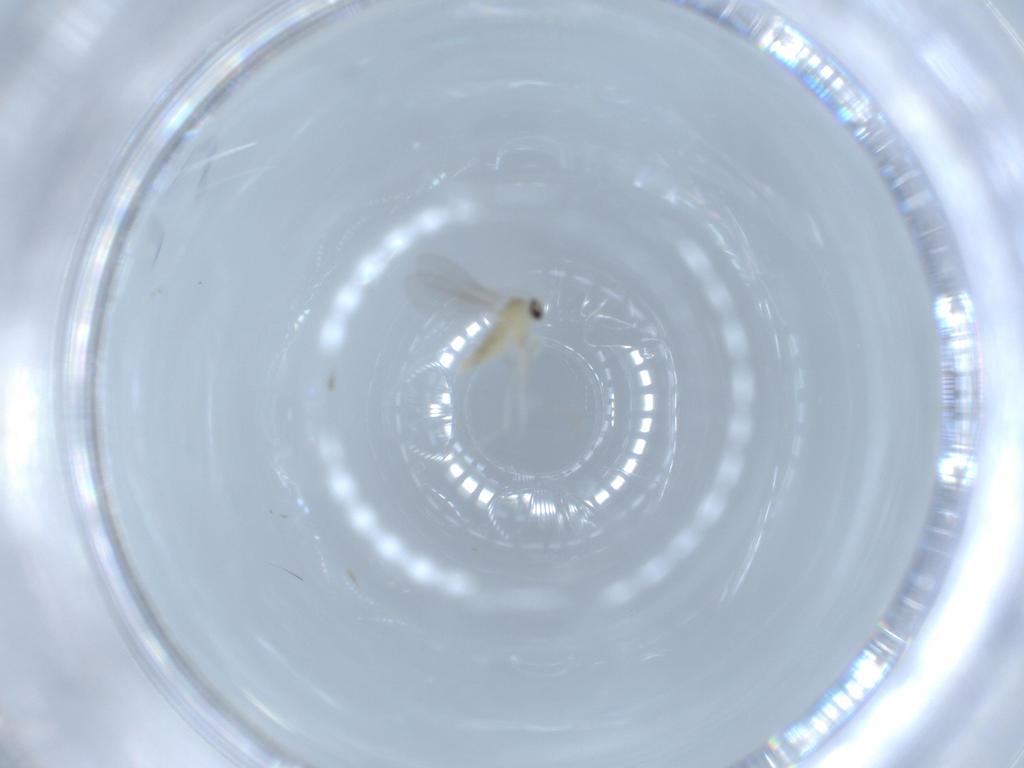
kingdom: Animalia
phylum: Arthropoda
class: Insecta
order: Diptera
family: Cecidomyiidae
